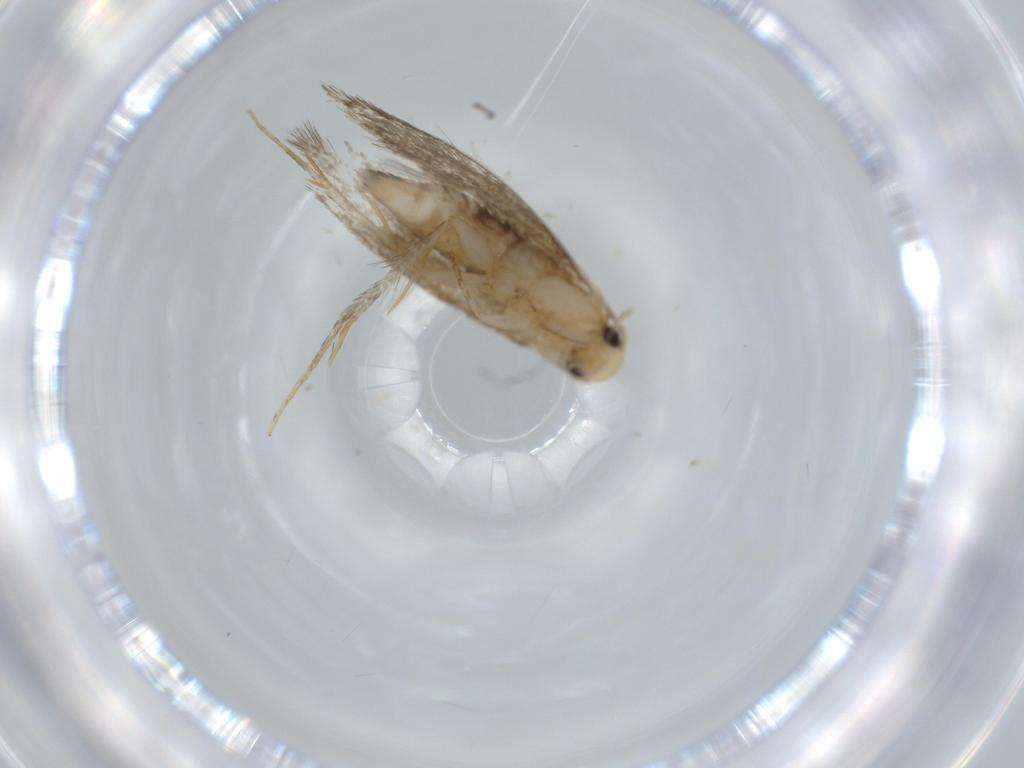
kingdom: Animalia
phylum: Arthropoda
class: Insecta
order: Lepidoptera
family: Tineidae
